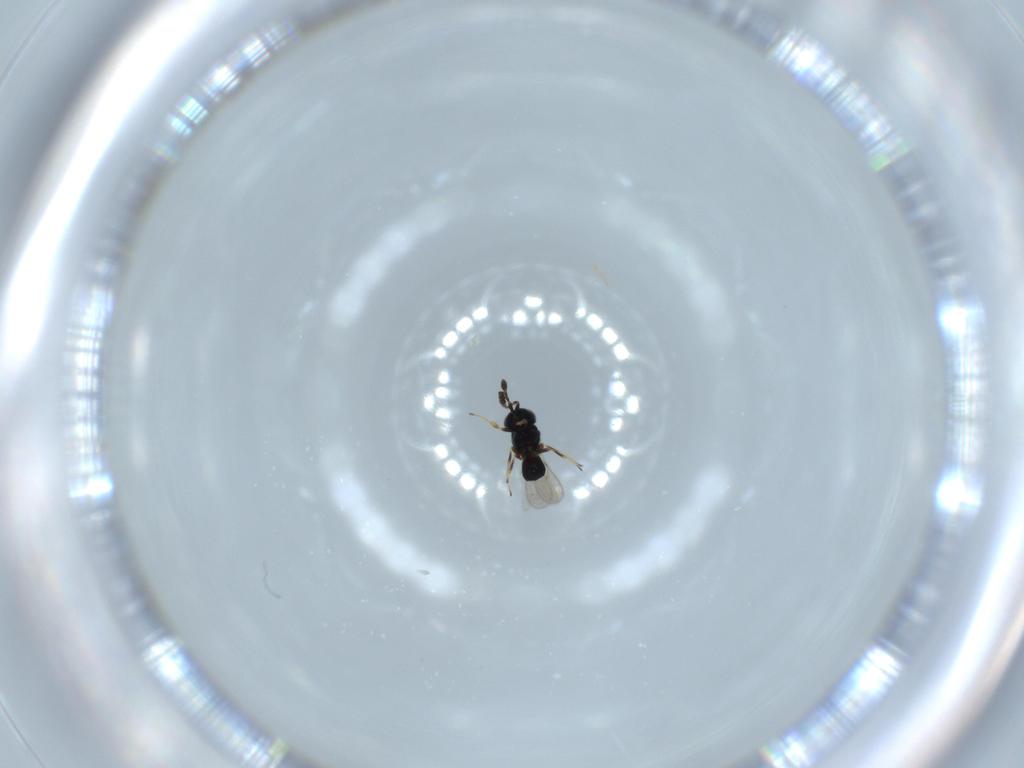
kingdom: Animalia
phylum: Arthropoda
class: Insecta
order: Hymenoptera
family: Scelionidae
